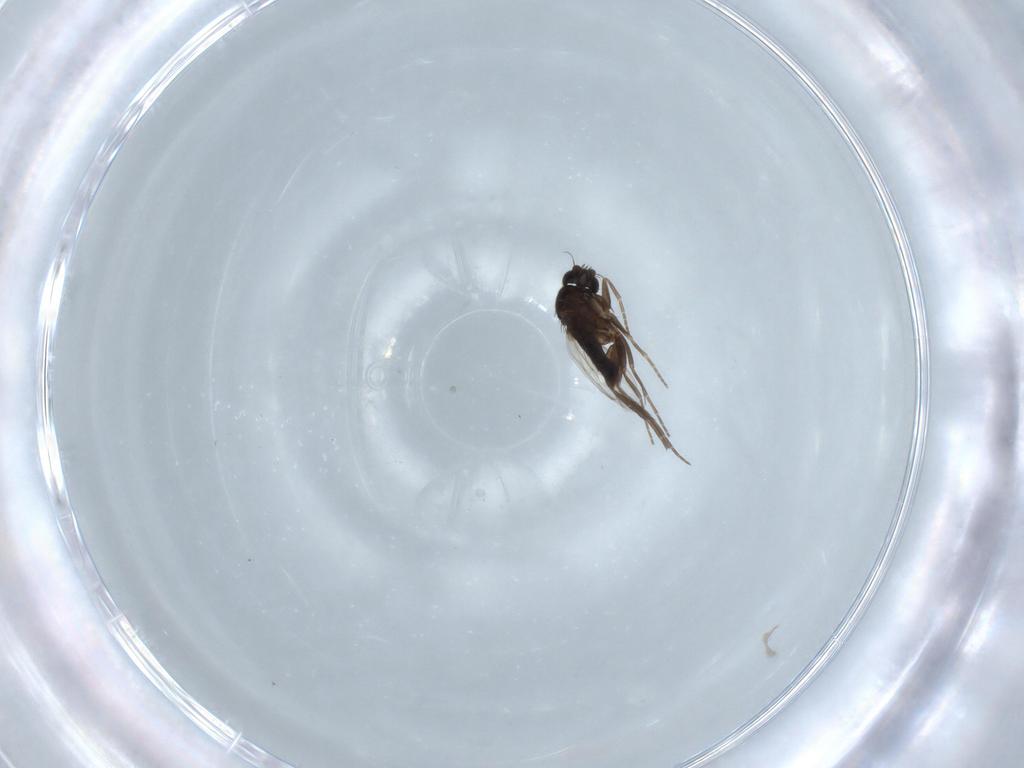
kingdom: Animalia
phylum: Arthropoda
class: Insecta
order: Diptera
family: Phoridae
